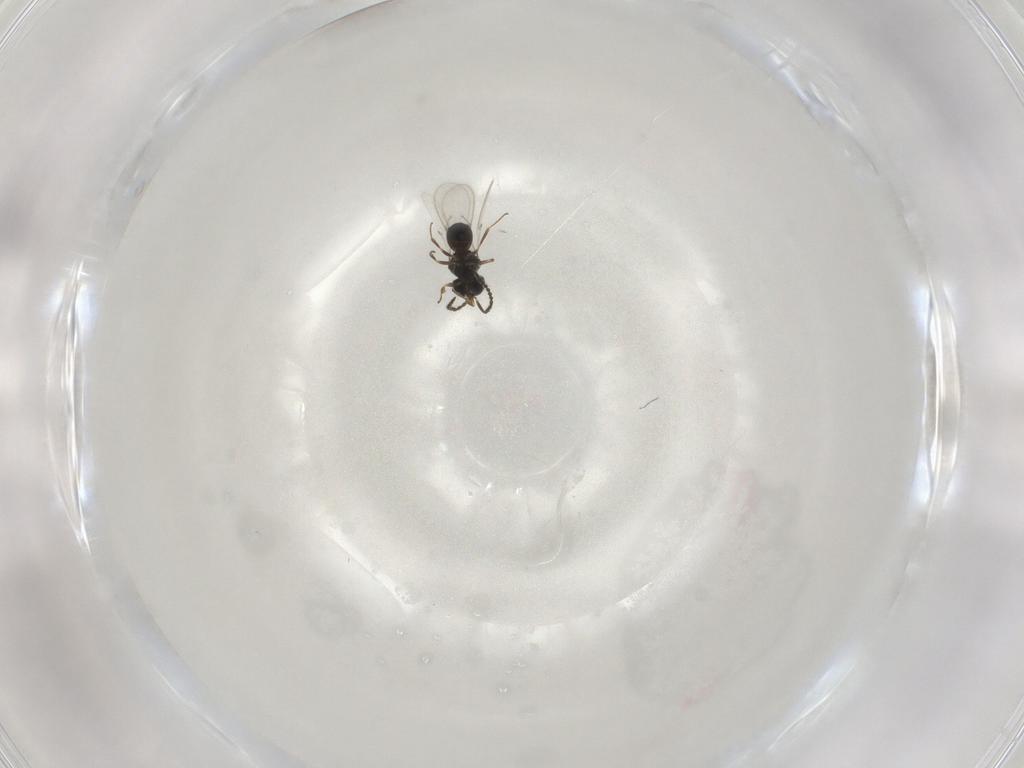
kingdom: Animalia
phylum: Arthropoda
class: Insecta
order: Hymenoptera
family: Scelionidae
